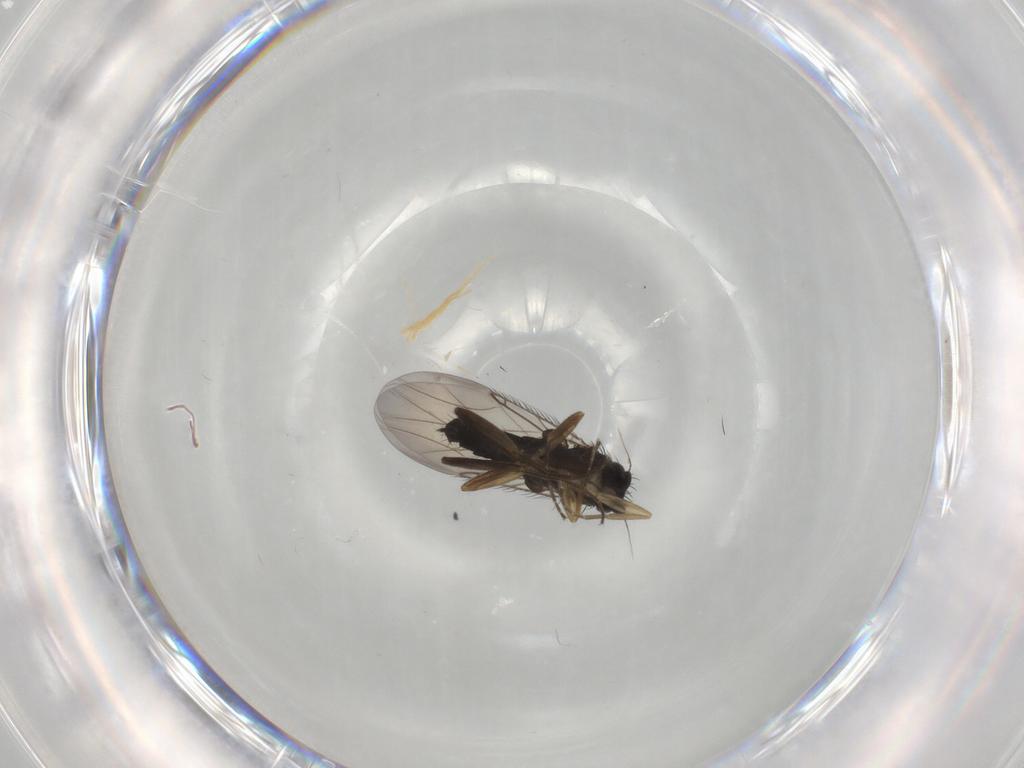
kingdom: Animalia
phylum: Arthropoda
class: Insecta
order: Diptera
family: Phoridae
